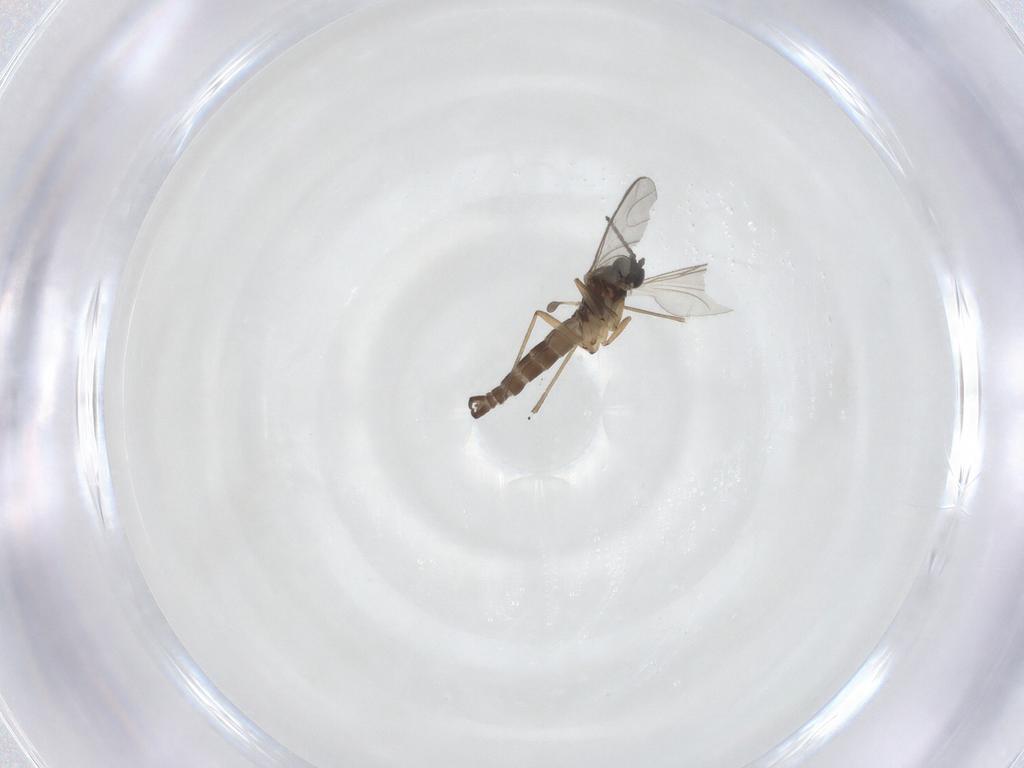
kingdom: Animalia
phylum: Arthropoda
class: Insecta
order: Diptera
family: Sciaridae
